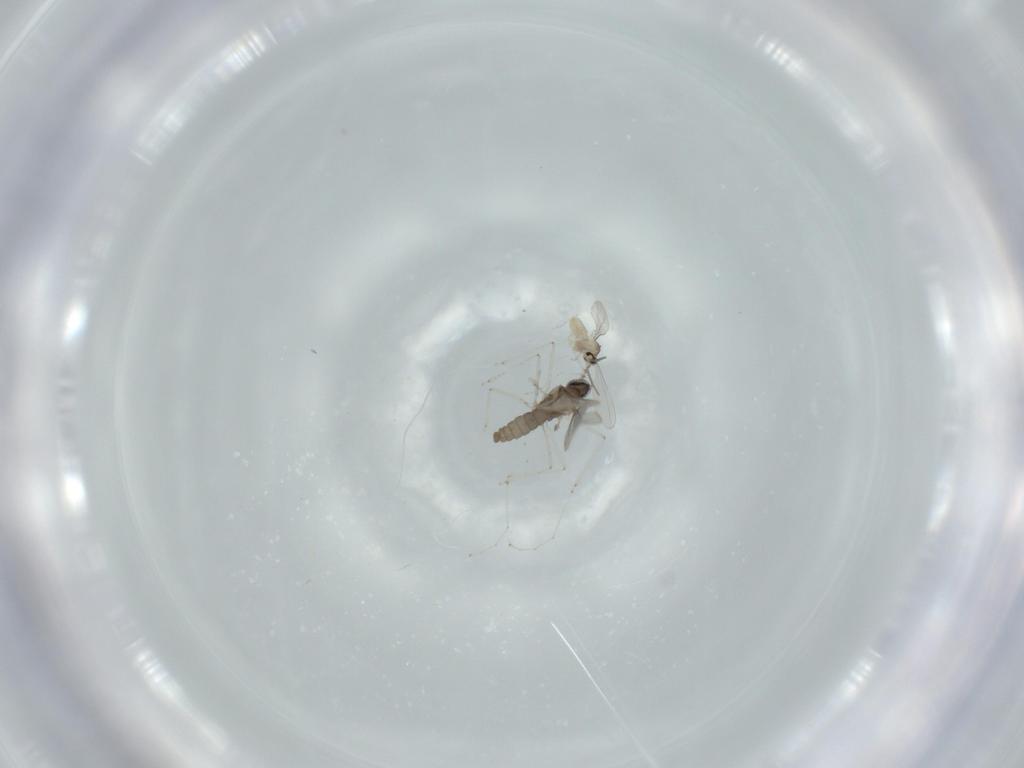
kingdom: Animalia
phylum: Arthropoda
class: Insecta
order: Diptera
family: Cecidomyiidae
